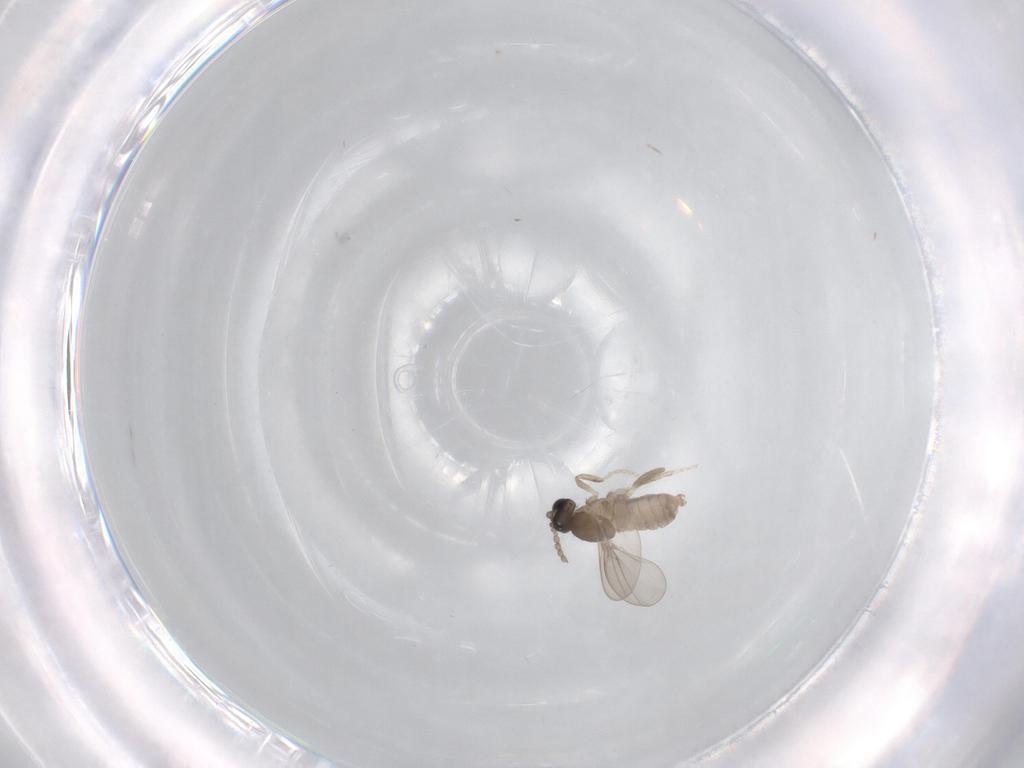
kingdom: Animalia
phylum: Arthropoda
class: Insecta
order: Diptera
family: Cecidomyiidae
